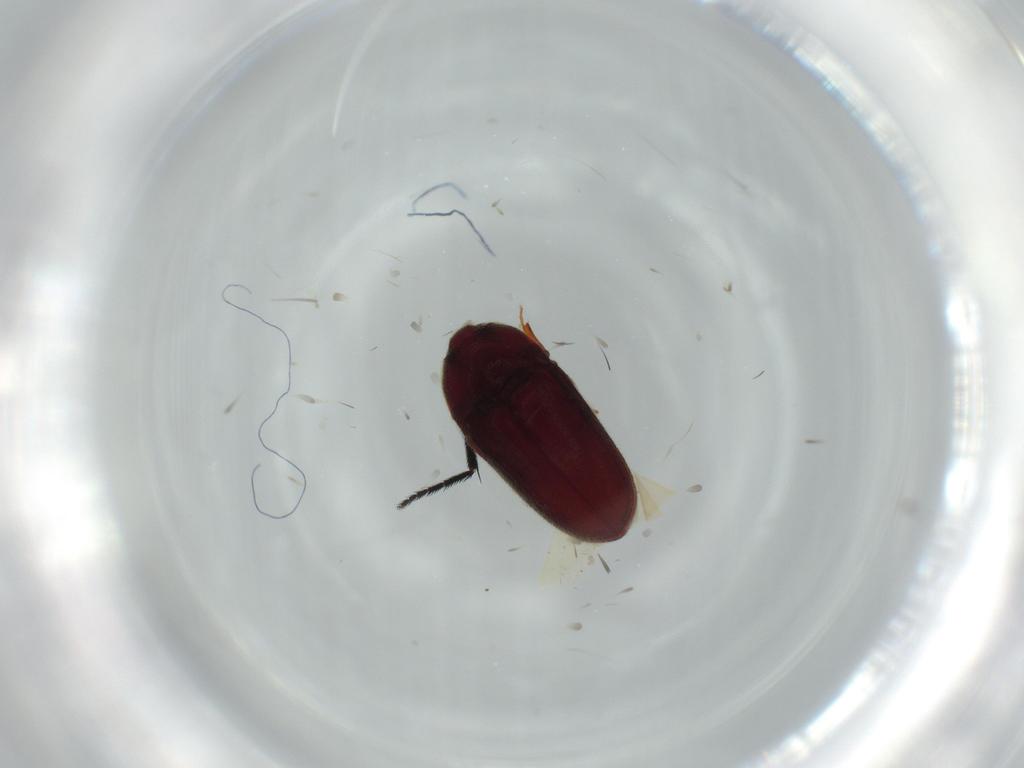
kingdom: Animalia
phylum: Arthropoda
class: Insecta
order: Coleoptera
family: Throscidae
